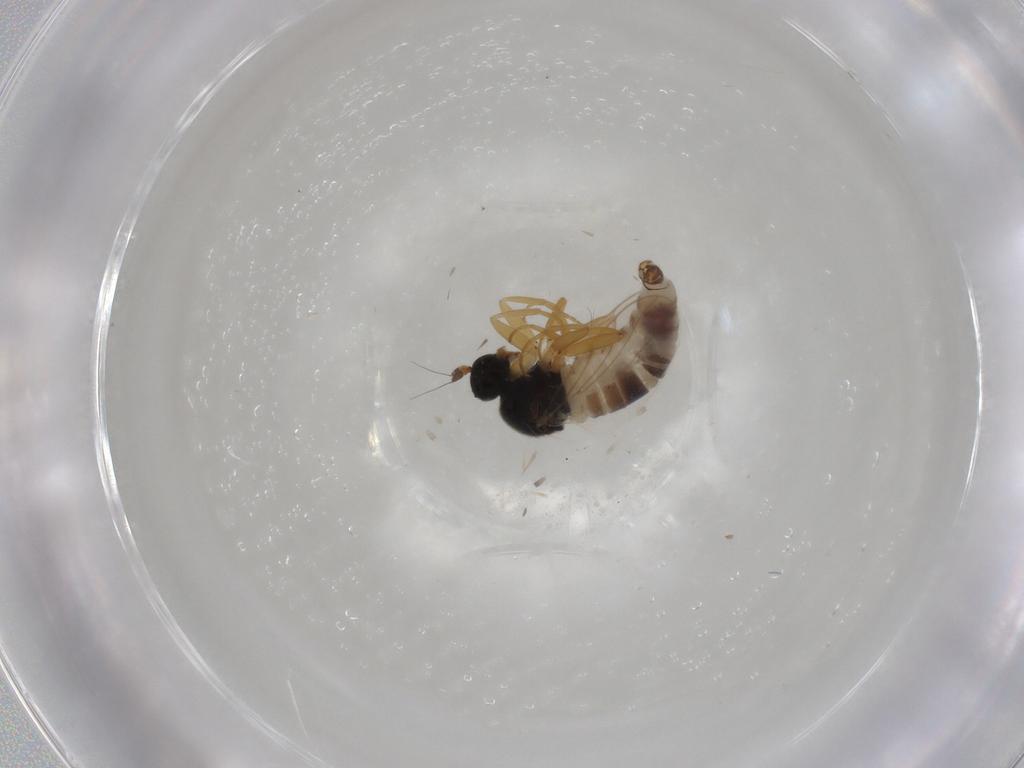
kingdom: Animalia
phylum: Arthropoda
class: Insecta
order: Diptera
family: Hybotidae
